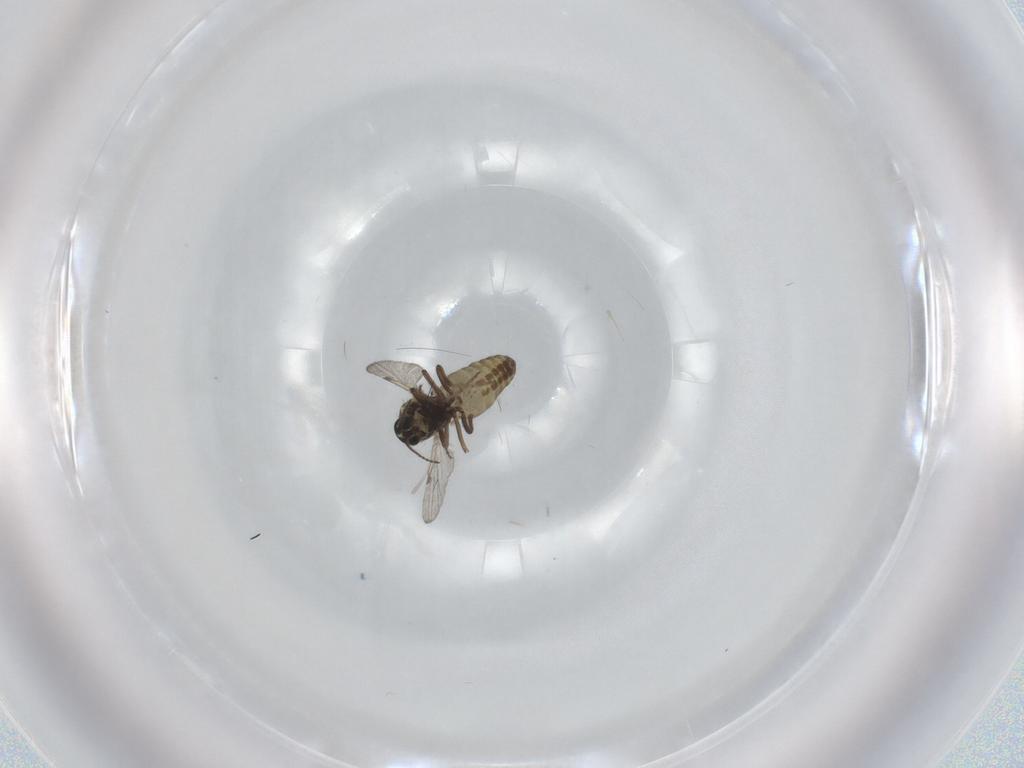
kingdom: Animalia
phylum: Arthropoda
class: Insecta
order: Diptera
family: Ceratopogonidae
